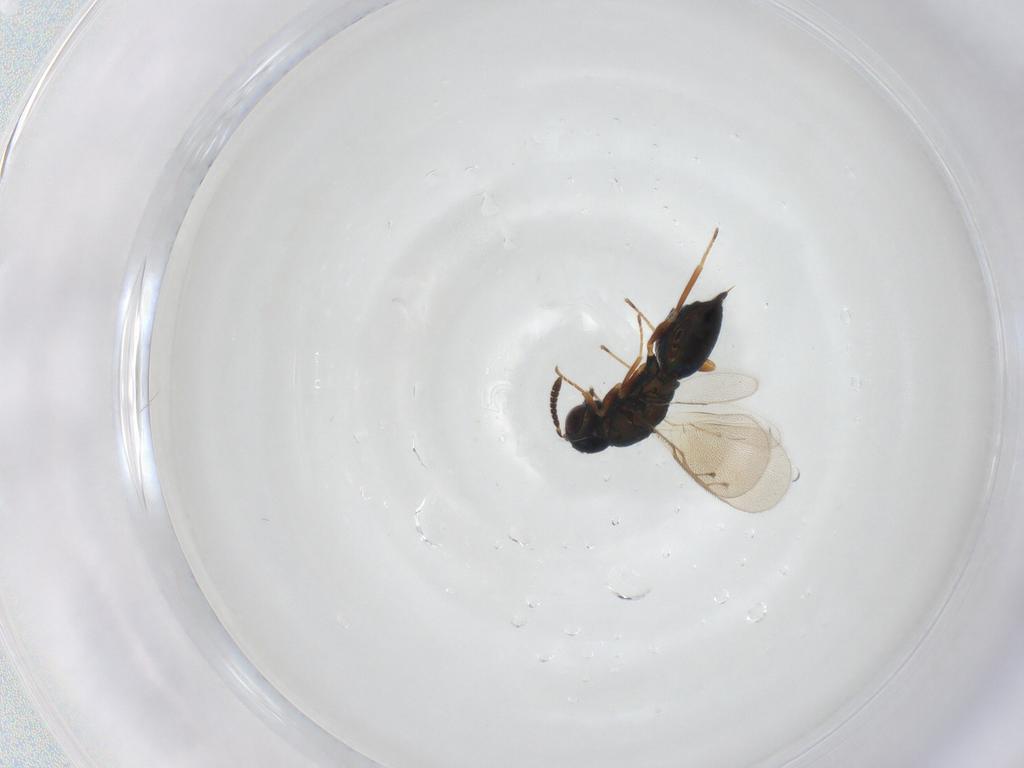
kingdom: Animalia
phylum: Arthropoda
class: Insecta
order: Hymenoptera
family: Pteromalidae
